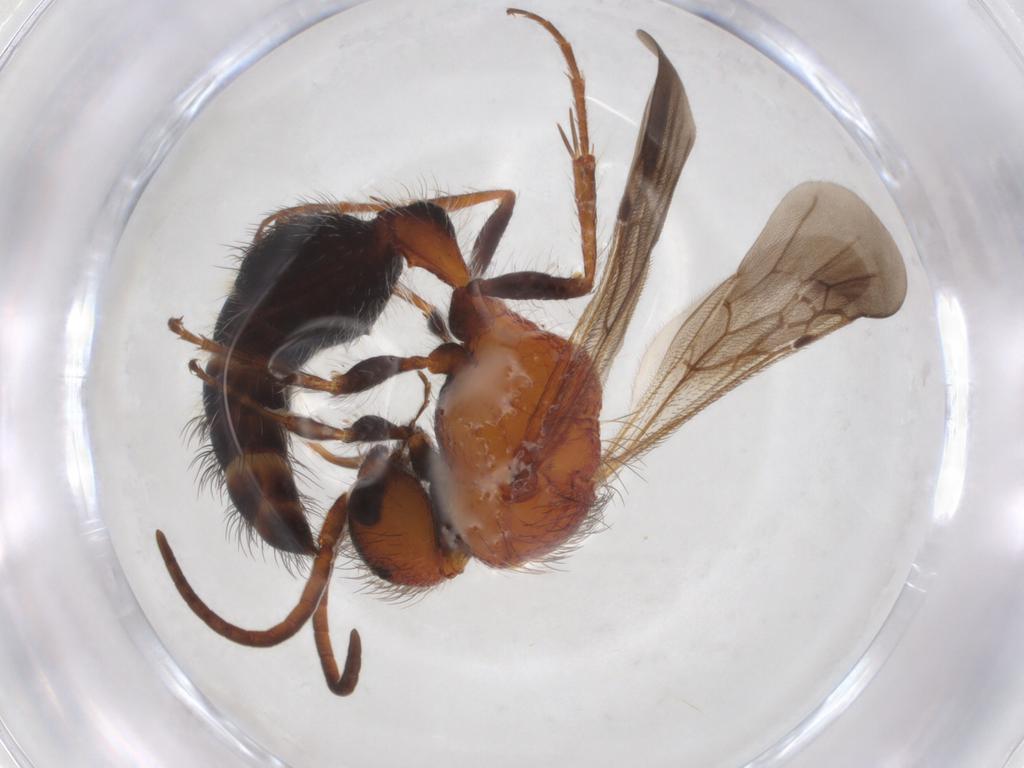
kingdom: Animalia
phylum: Arthropoda
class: Insecta
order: Hymenoptera
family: Mutillidae
